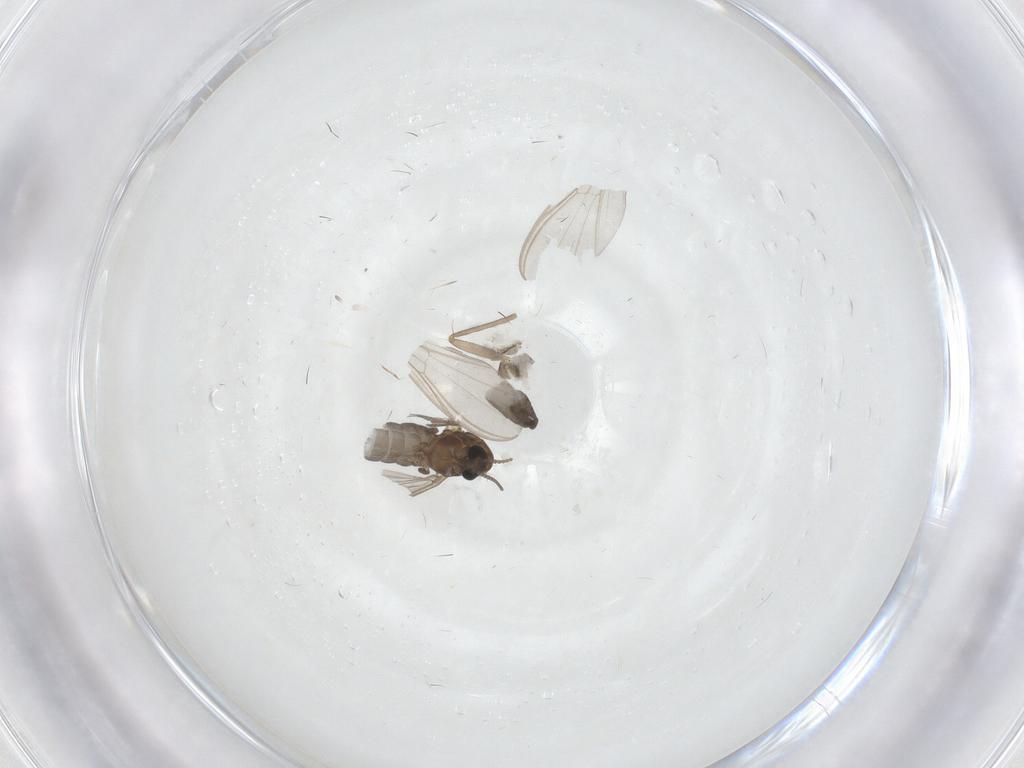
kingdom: Animalia
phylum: Arthropoda
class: Insecta
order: Diptera
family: Chironomidae
